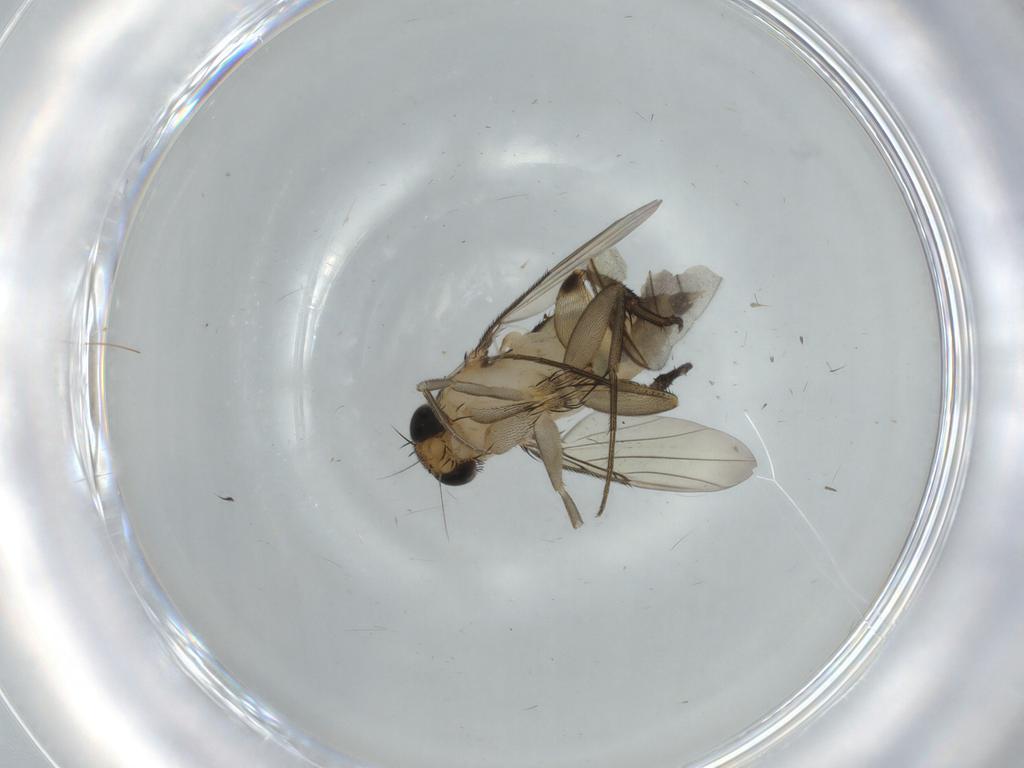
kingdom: Animalia
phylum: Arthropoda
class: Insecta
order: Diptera
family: Cecidomyiidae
